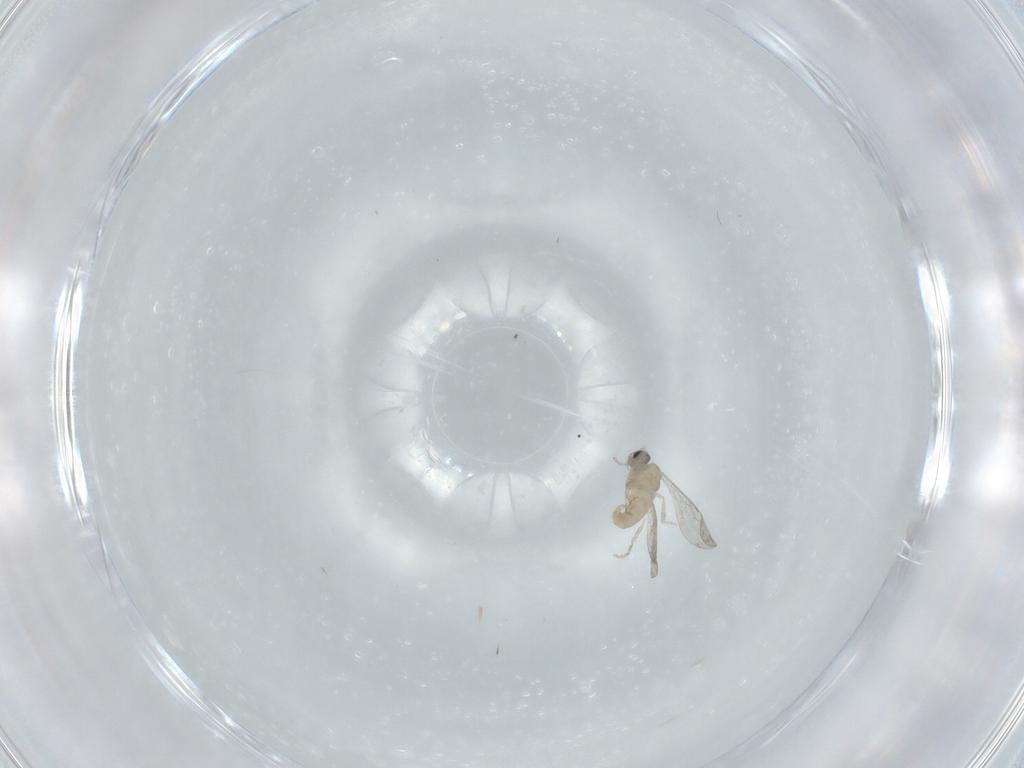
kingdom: Animalia
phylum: Arthropoda
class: Insecta
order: Diptera
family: Cecidomyiidae
